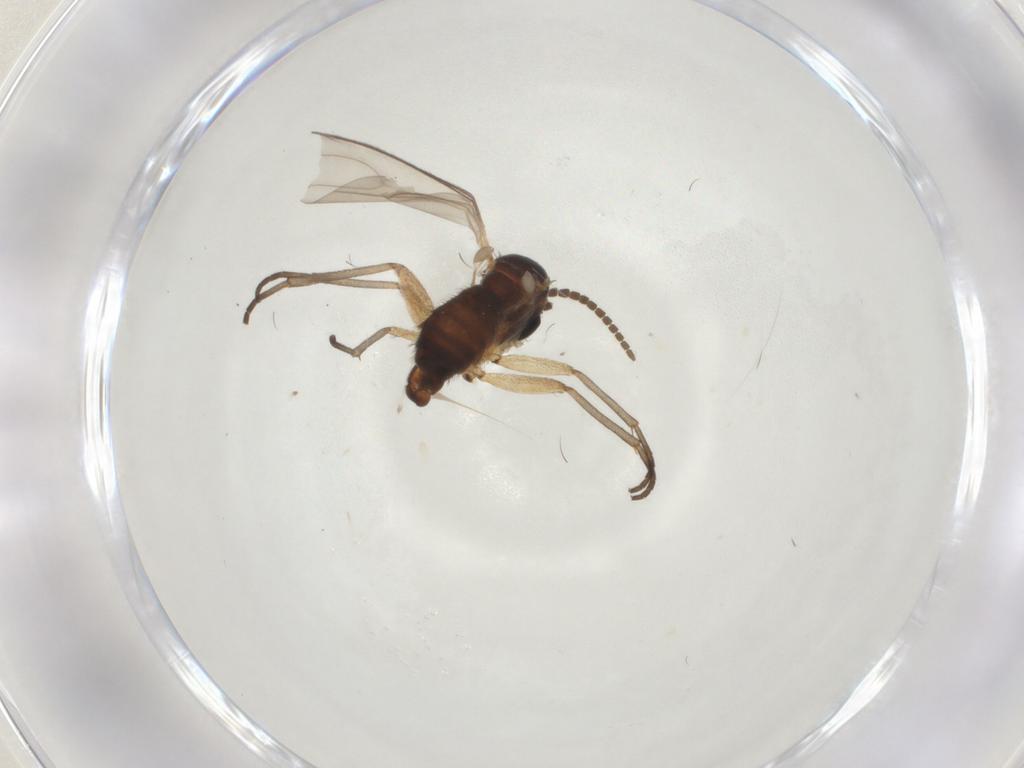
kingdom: Animalia
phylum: Arthropoda
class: Insecta
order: Diptera
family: Sciaridae
